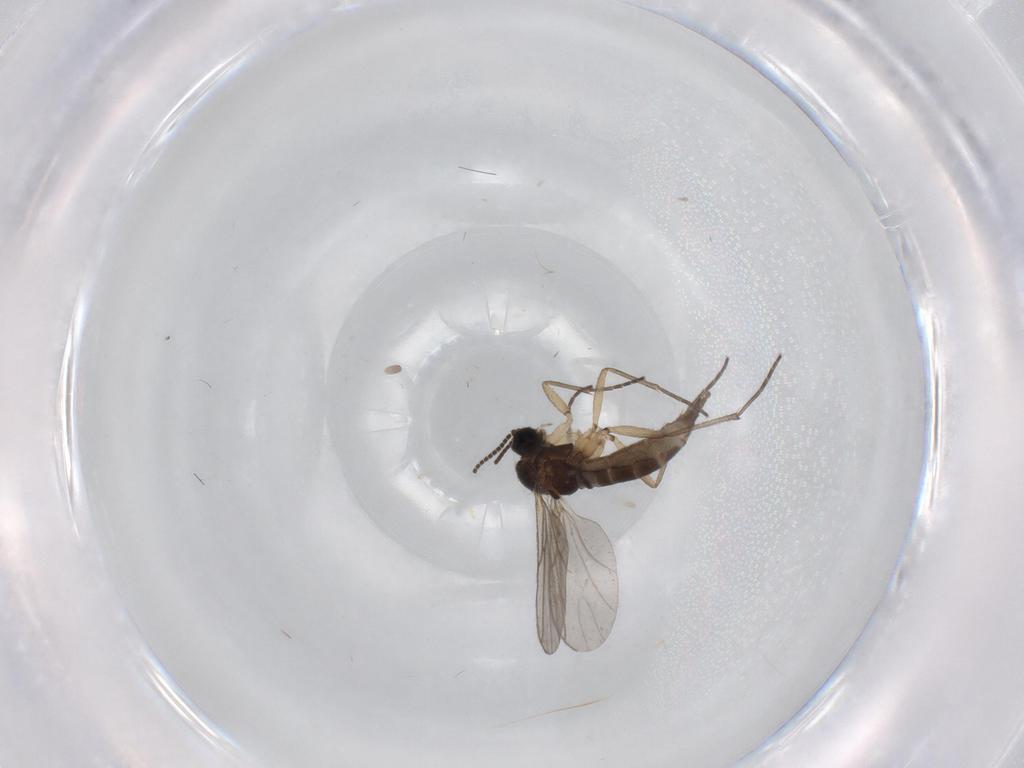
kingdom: Animalia
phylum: Arthropoda
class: Insecta
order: Diptera
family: Sciaridae
